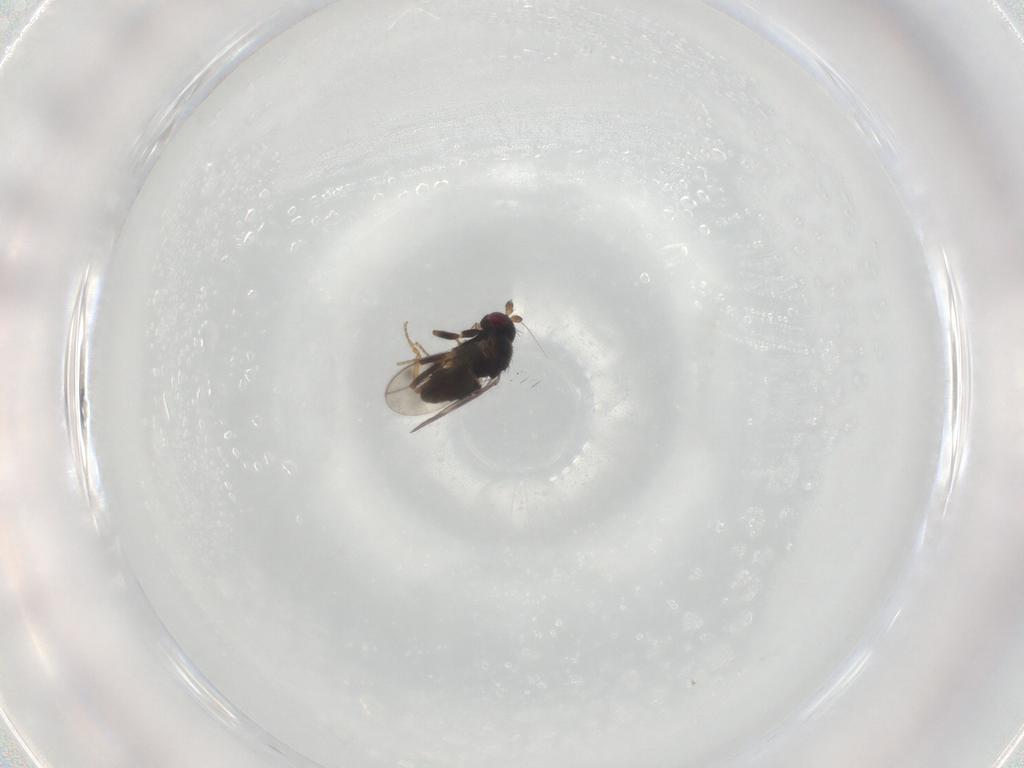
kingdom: Animalia
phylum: Arthropoda
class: Insecta
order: Diptera
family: Sphaeroceridae
